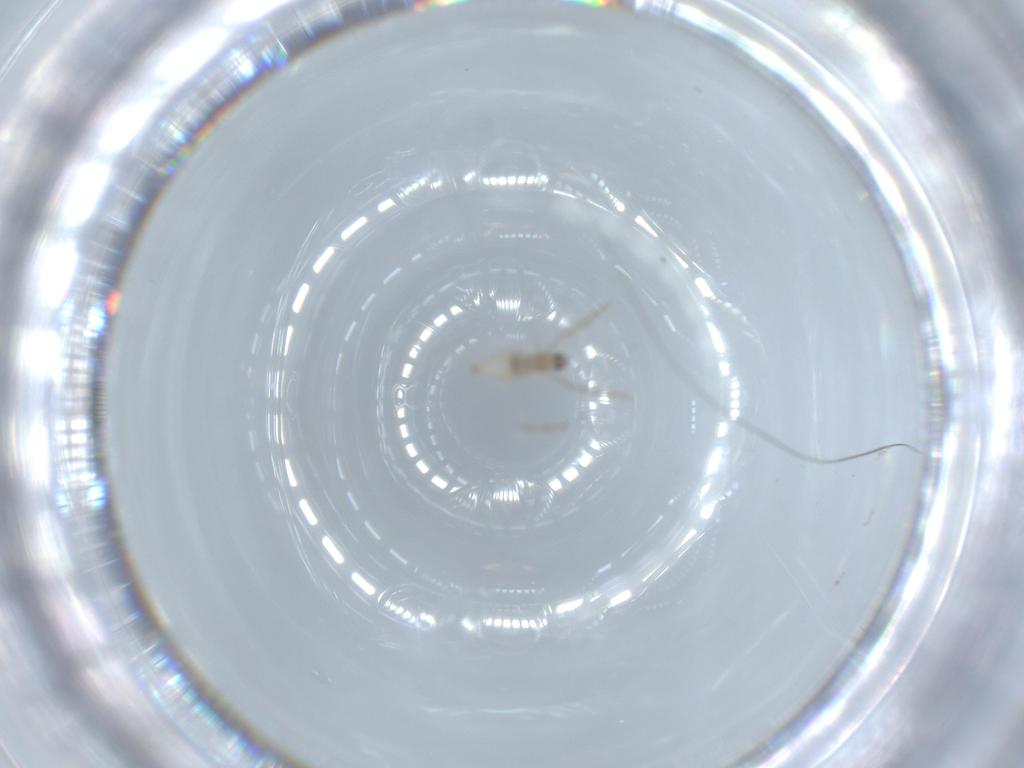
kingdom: Animalia
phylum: Arthropoda
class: Insecta
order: Diptera
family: Cecidomyiidae
